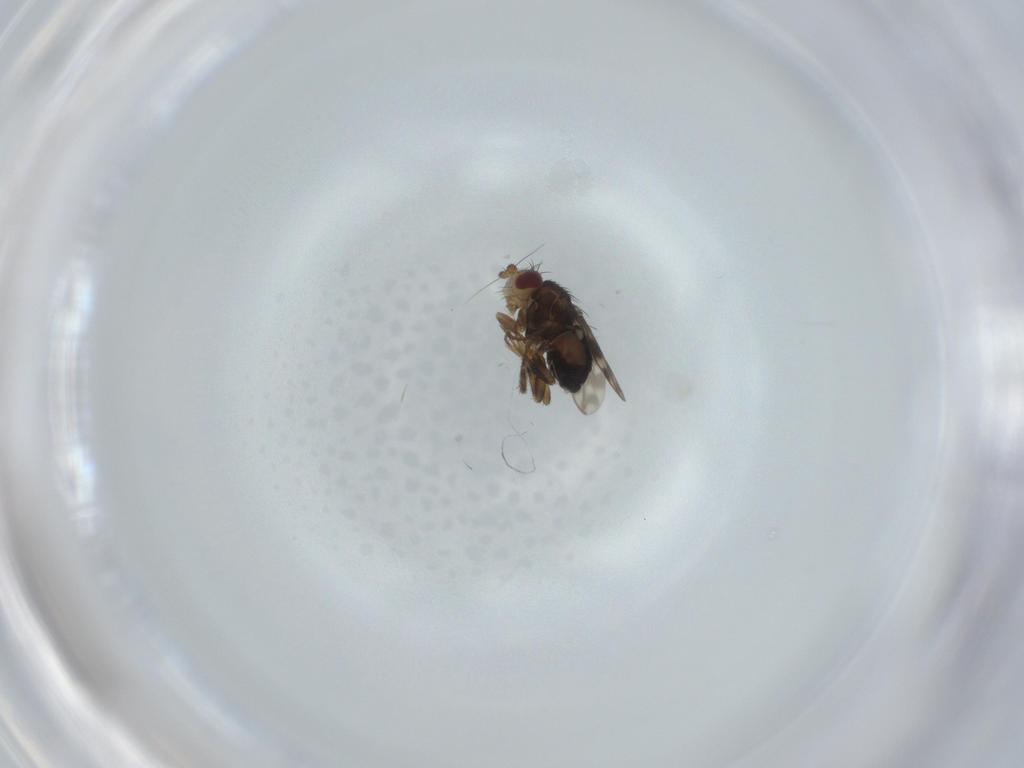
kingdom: Animalia
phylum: Arthropoda
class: Insecta
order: Diptera
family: Sphaeroceridae
